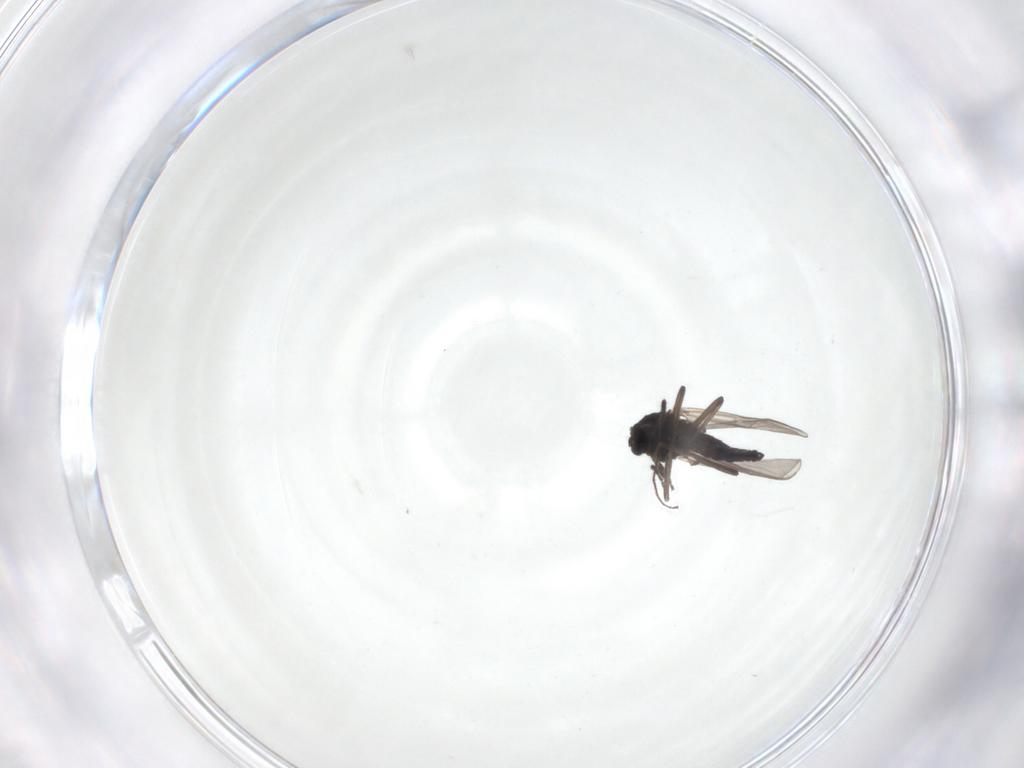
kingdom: Animalia
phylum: Arthropoda
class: Insecta
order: Diptera
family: Chironomidae
